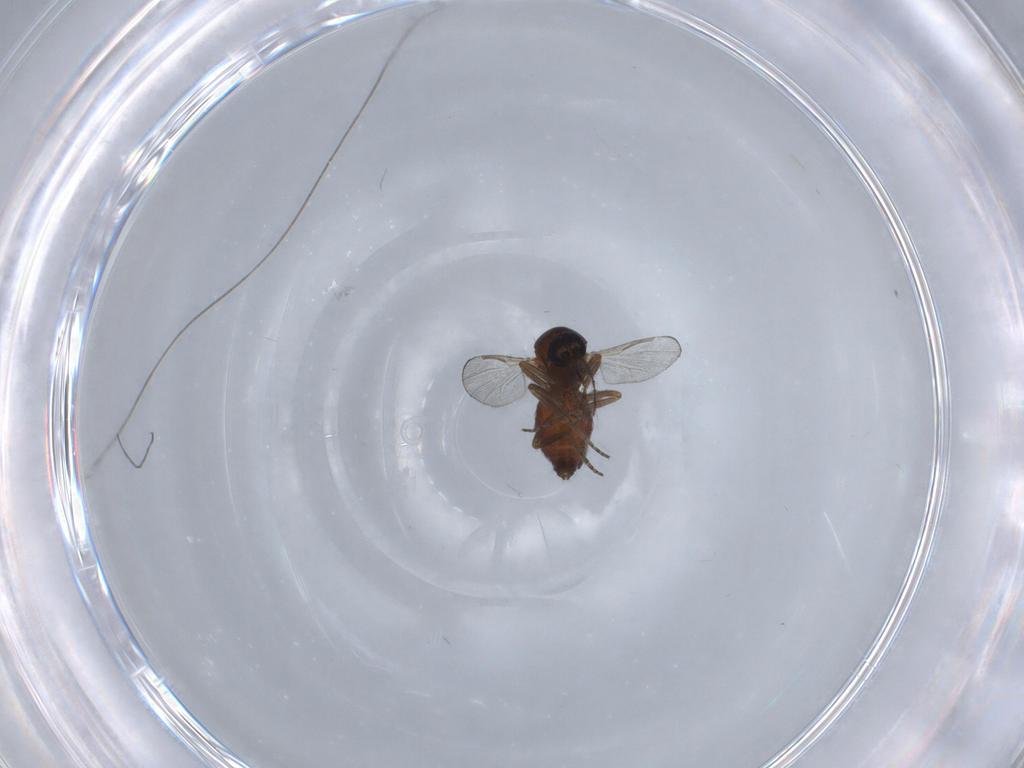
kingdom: Animalia
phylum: Arthropoda
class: Insecta
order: Diptera
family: Ceratopogonidae
